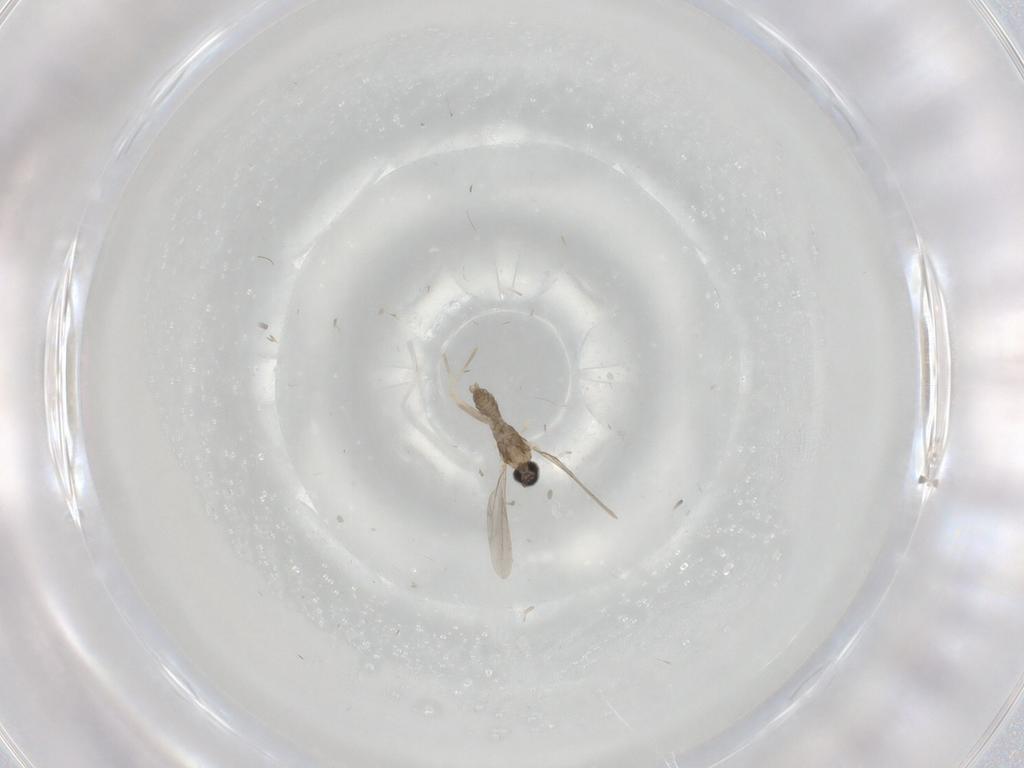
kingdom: Animalia
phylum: Arthropoda
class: Insecta
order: Diptera
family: Cecidomyiidae
